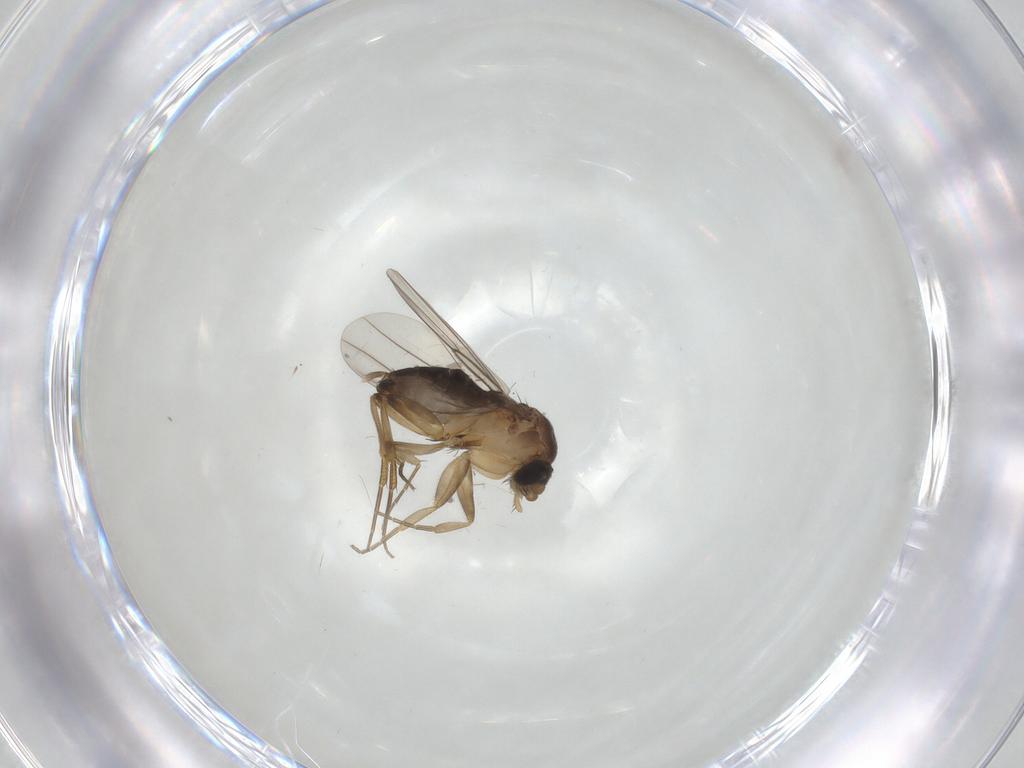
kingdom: Animalia
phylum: Arthropoda
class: Insecta
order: Diptera
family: Phoridae
